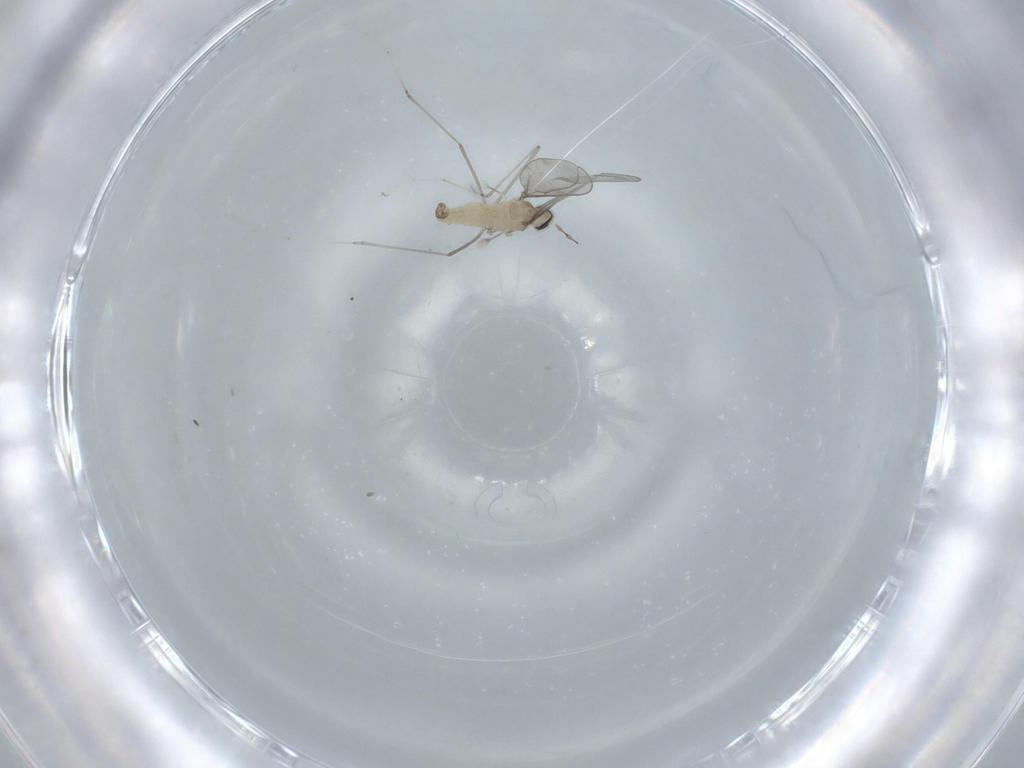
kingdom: Animalia
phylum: Arthropoda
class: Insecta
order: Diptera
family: Cecidomyiidae
